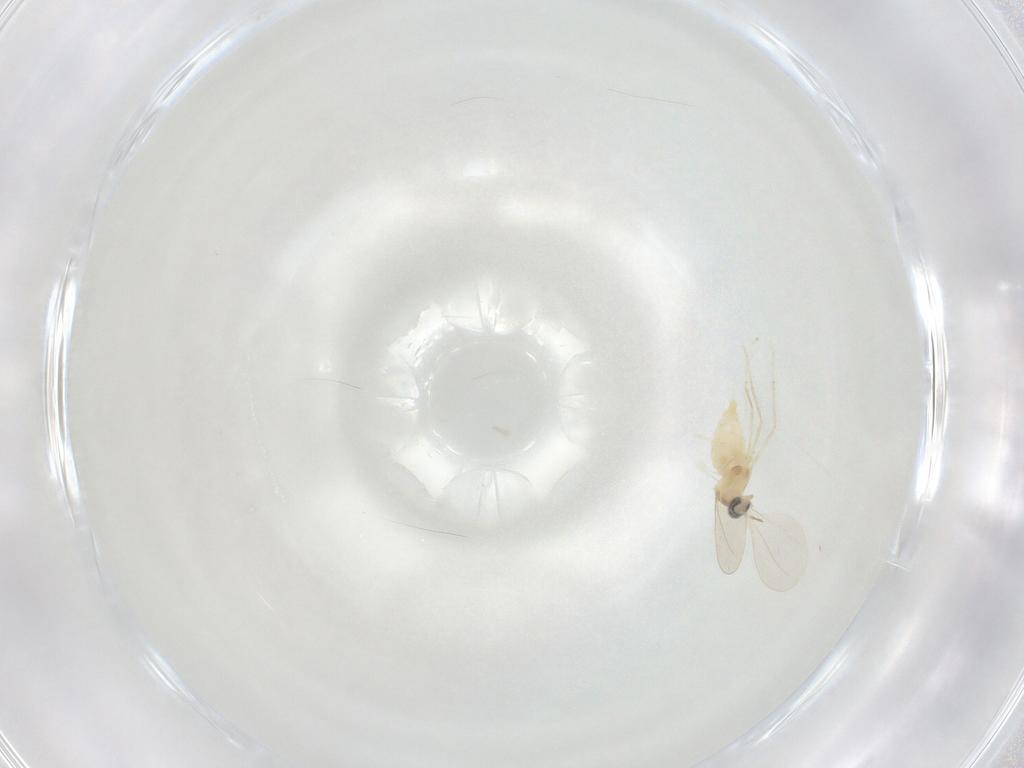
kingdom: Animalia
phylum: Arthropoda
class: Insecta
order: Diptera
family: Cecidomyiidae
